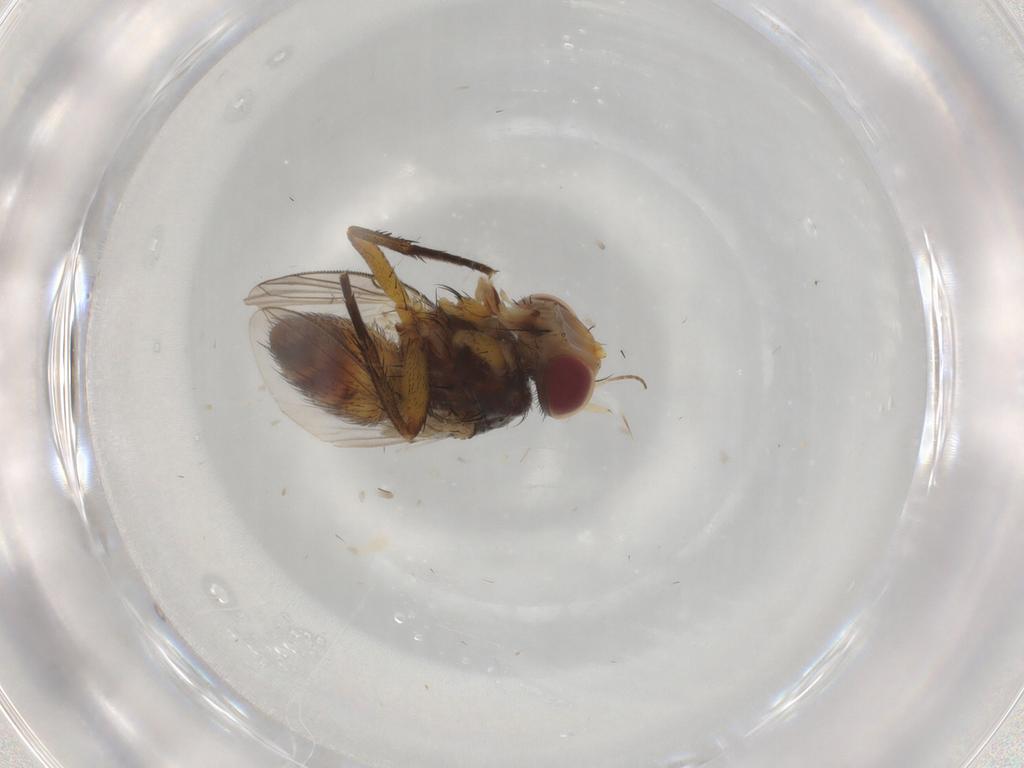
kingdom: Animalia
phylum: Arthropoda
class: Insecta
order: Diptera
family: Tachinidae
